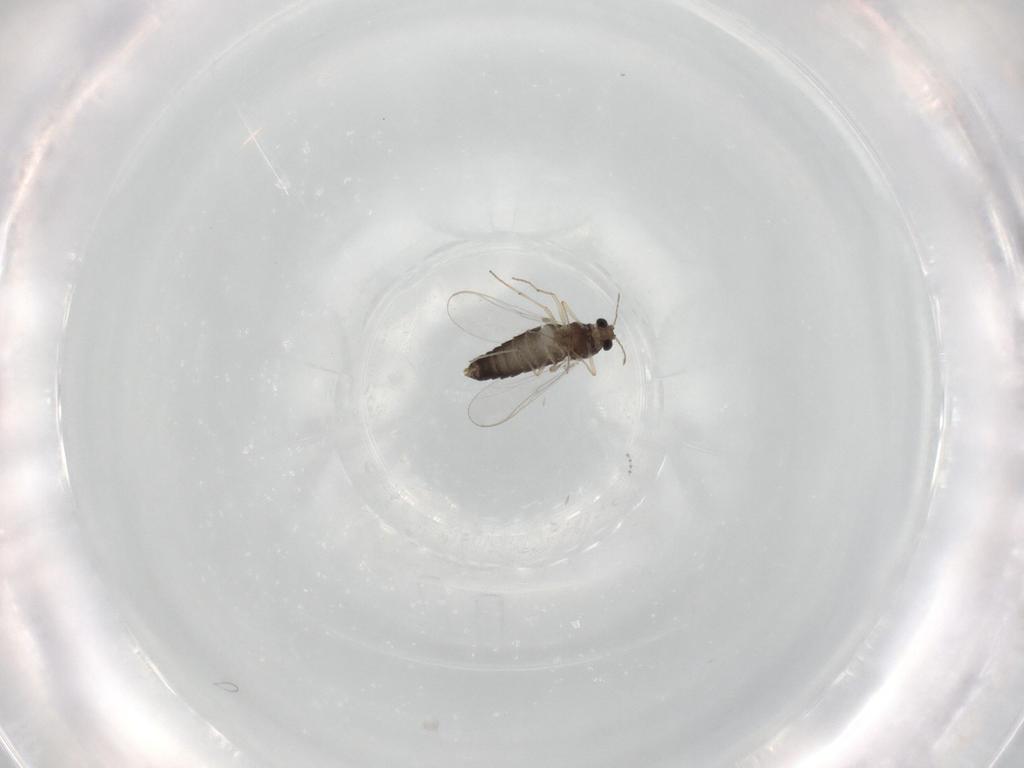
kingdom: Animalia
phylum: Arthropoda
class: Insecta
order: Diptera
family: Chironomidae
